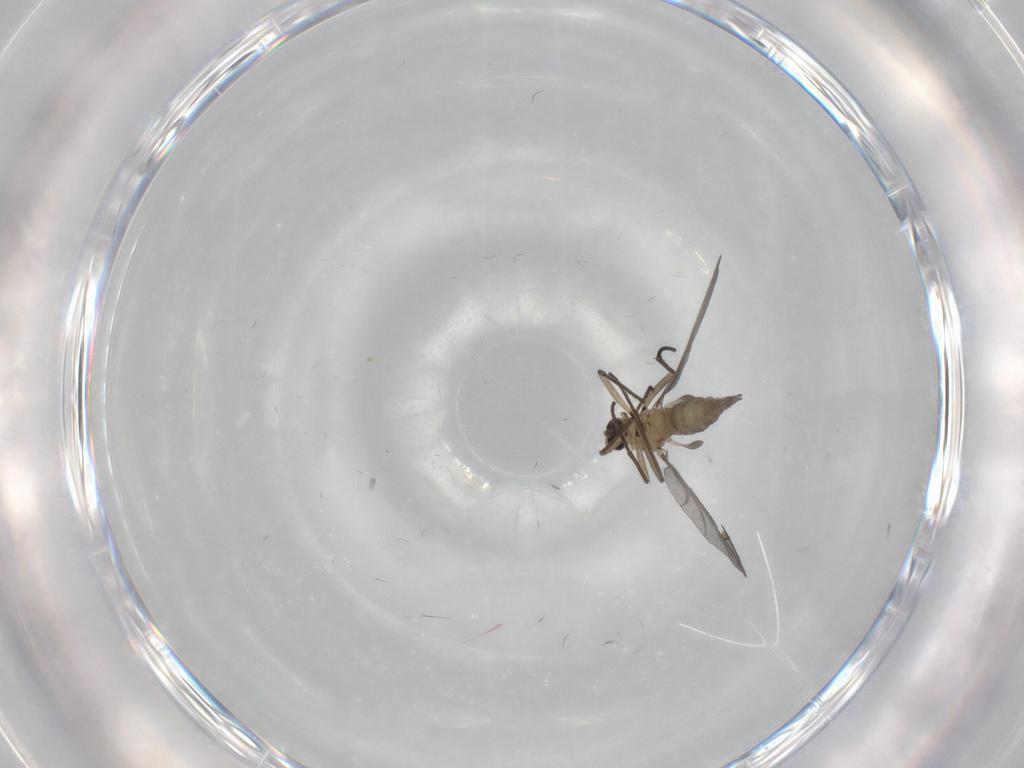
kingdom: Animalia
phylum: Arthropoda
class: Insecta
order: Diptera
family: Sciaridae
